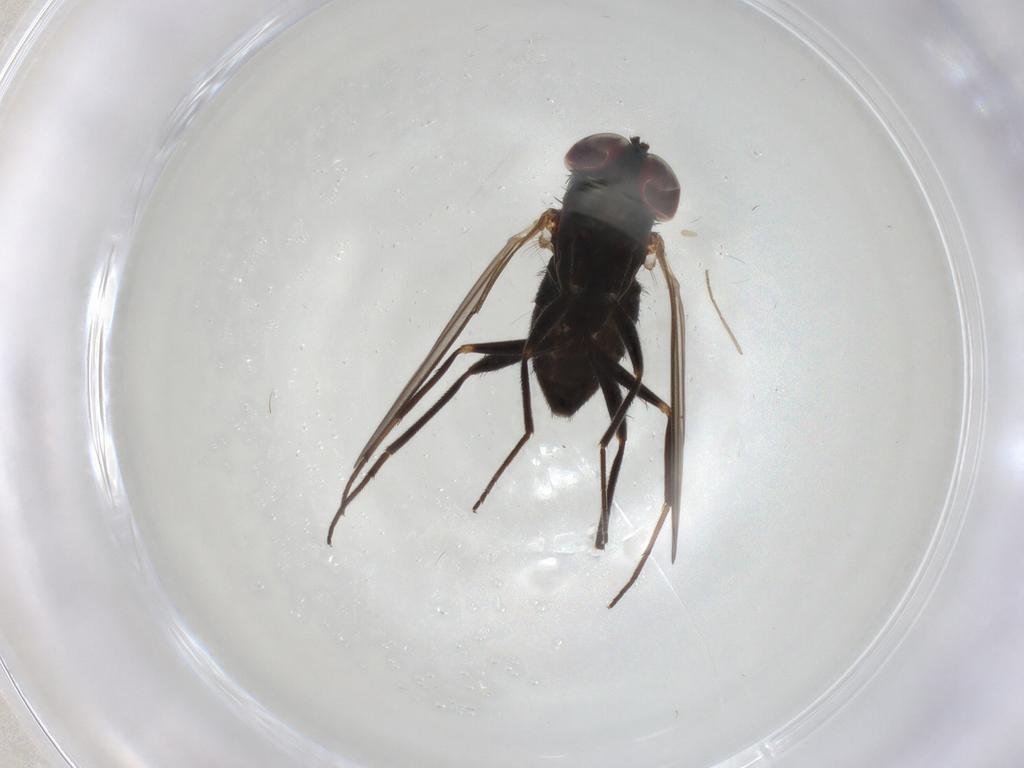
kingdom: Animalia
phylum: Arthropoda
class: Insecta
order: Diptera
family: Dolichopodidae
